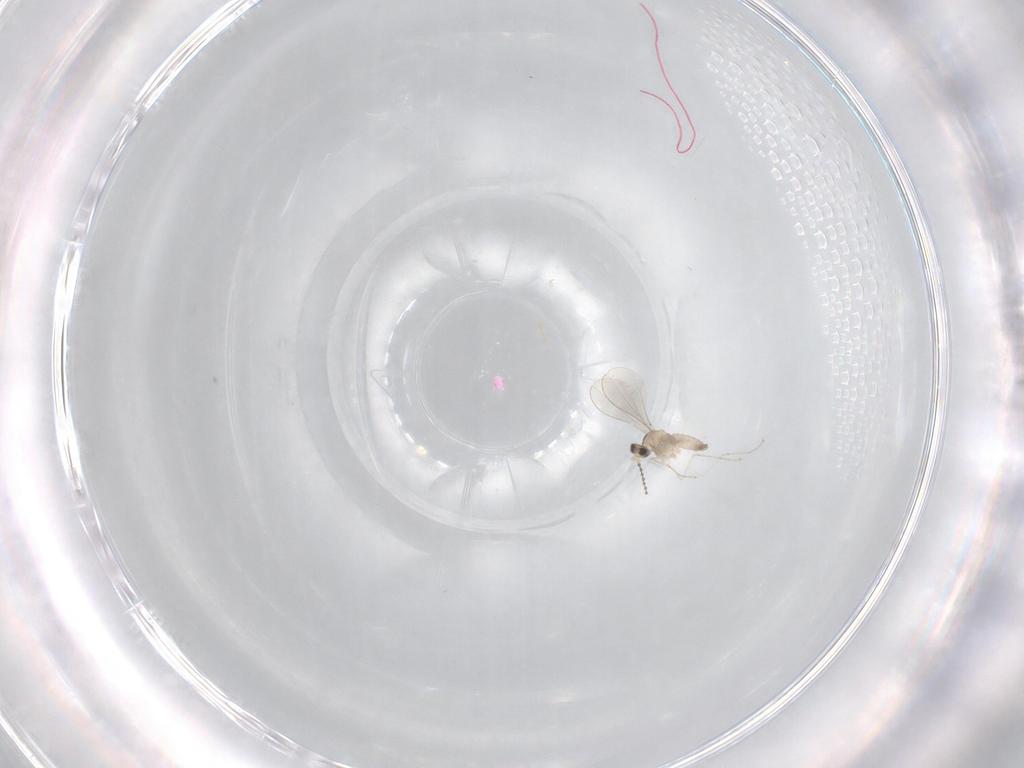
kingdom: Animalia
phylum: Arthropoda
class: Insecta
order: Diptera
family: Cecidomyiidae
